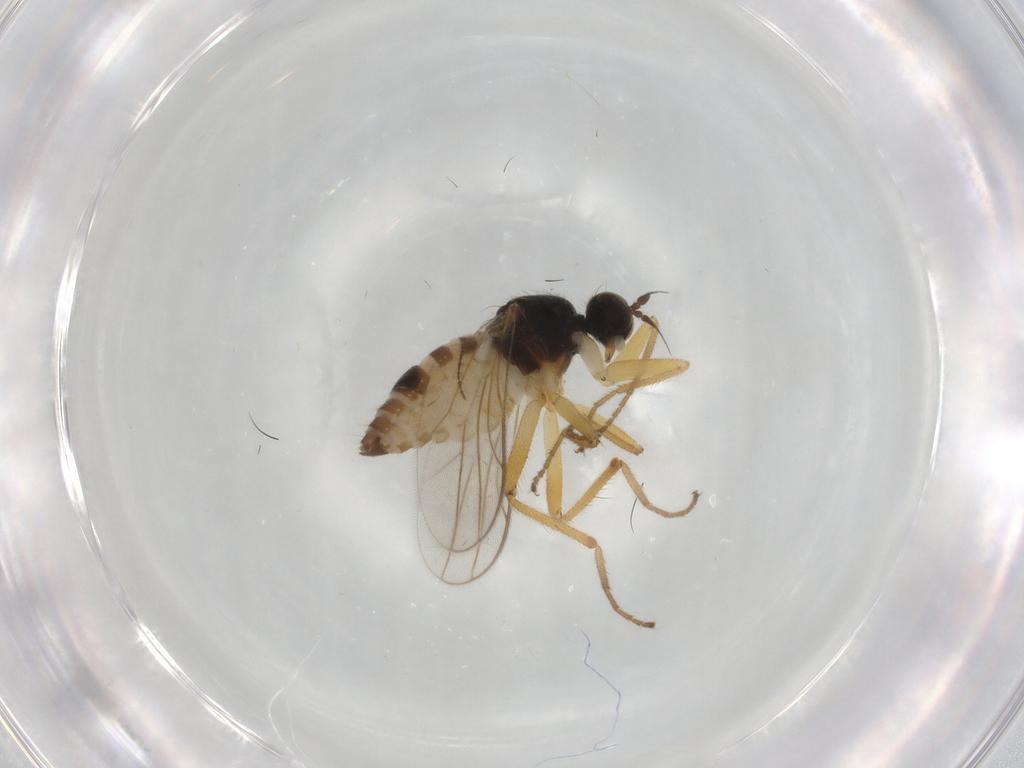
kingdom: Animalia
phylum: Arthropoda
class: Insecta
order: Diptera
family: Hybotidae
